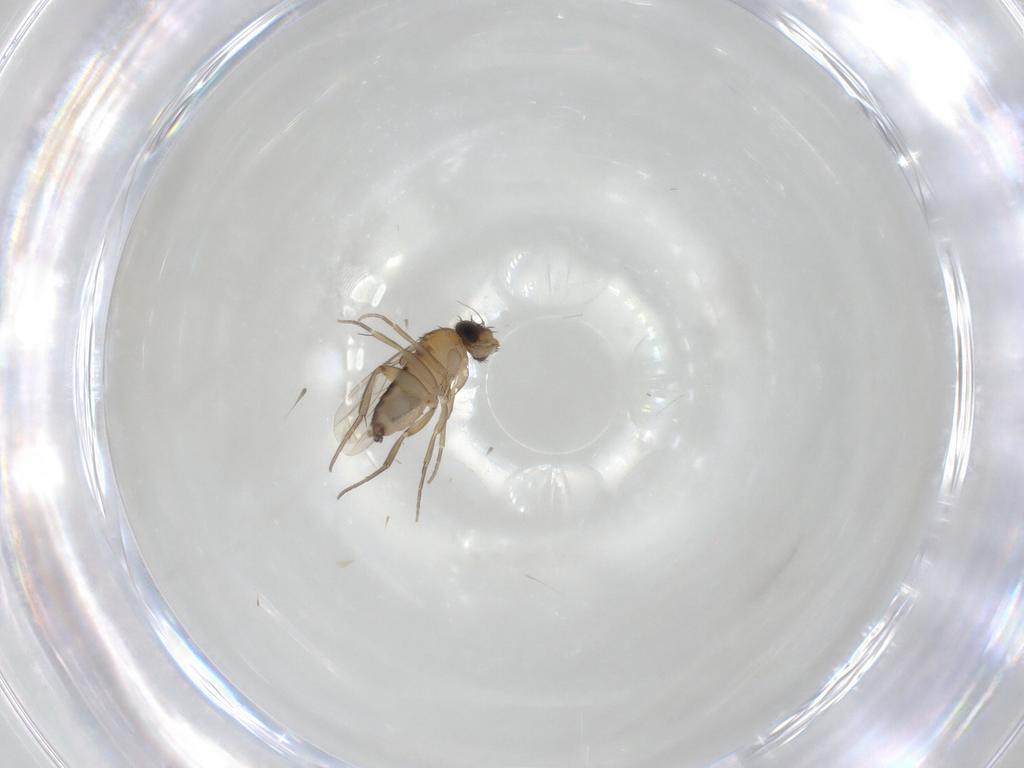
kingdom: Animalia
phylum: Arthropoda
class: Insecta
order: Diptera
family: Phoridae
